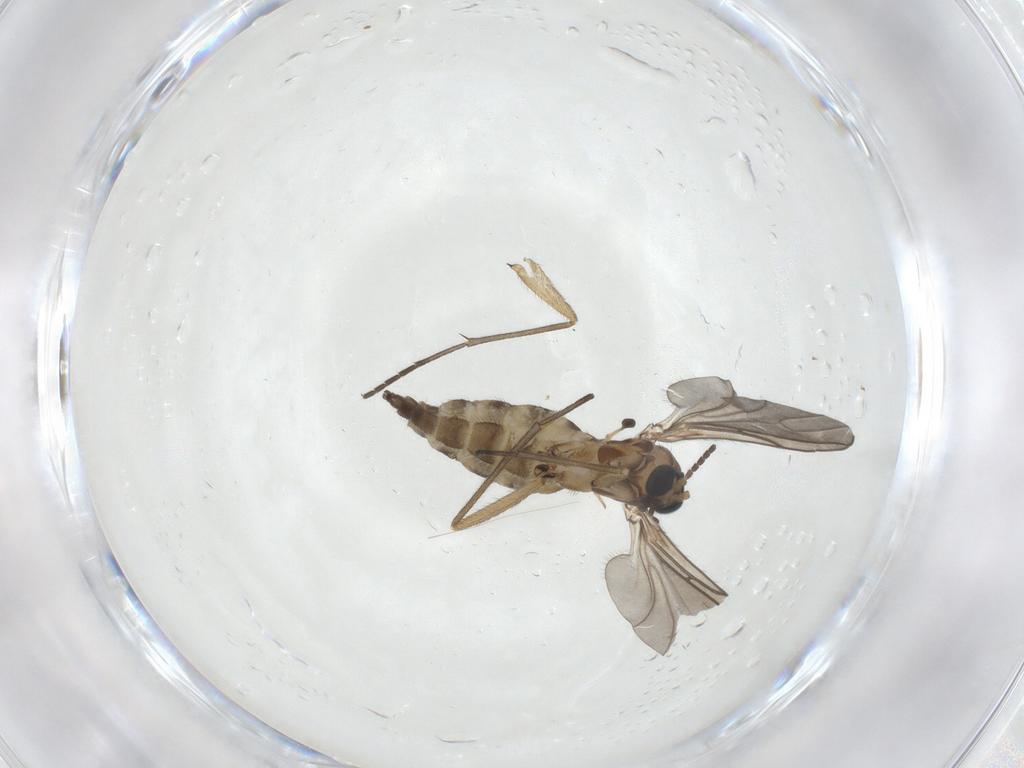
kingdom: Animalia
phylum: Arthropoda
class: Insecta
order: Diptera
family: Sciaridae
